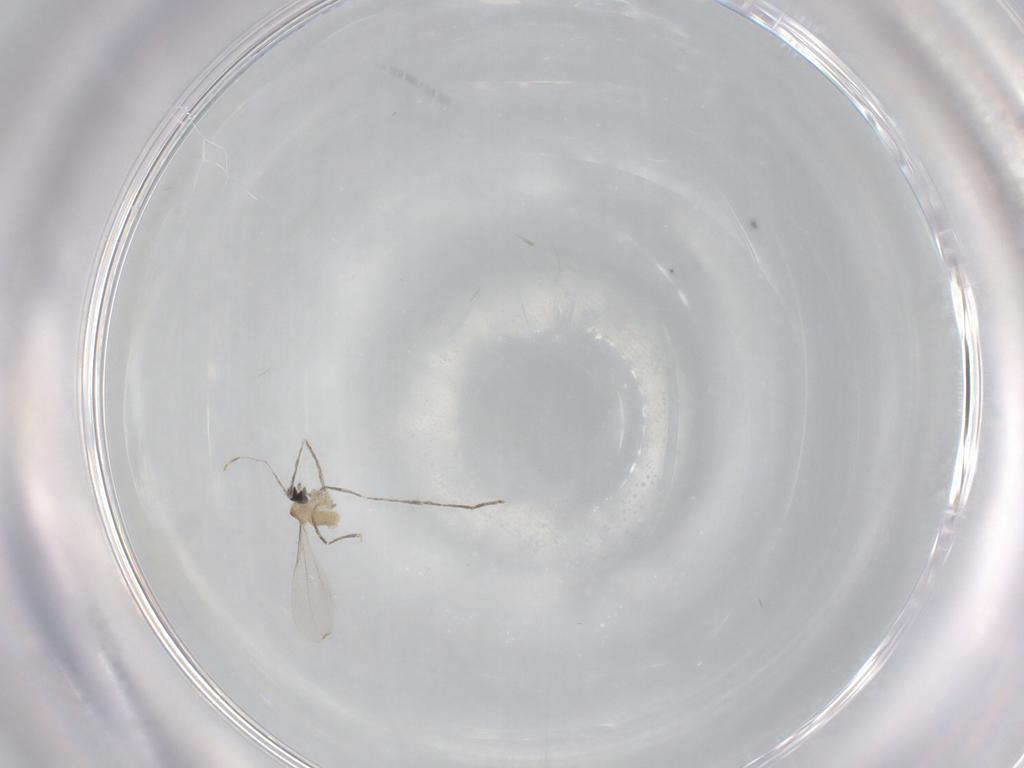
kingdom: Animalia
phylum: Arthropoda
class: Insecta
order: Diptera
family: Cecidomyiidae
